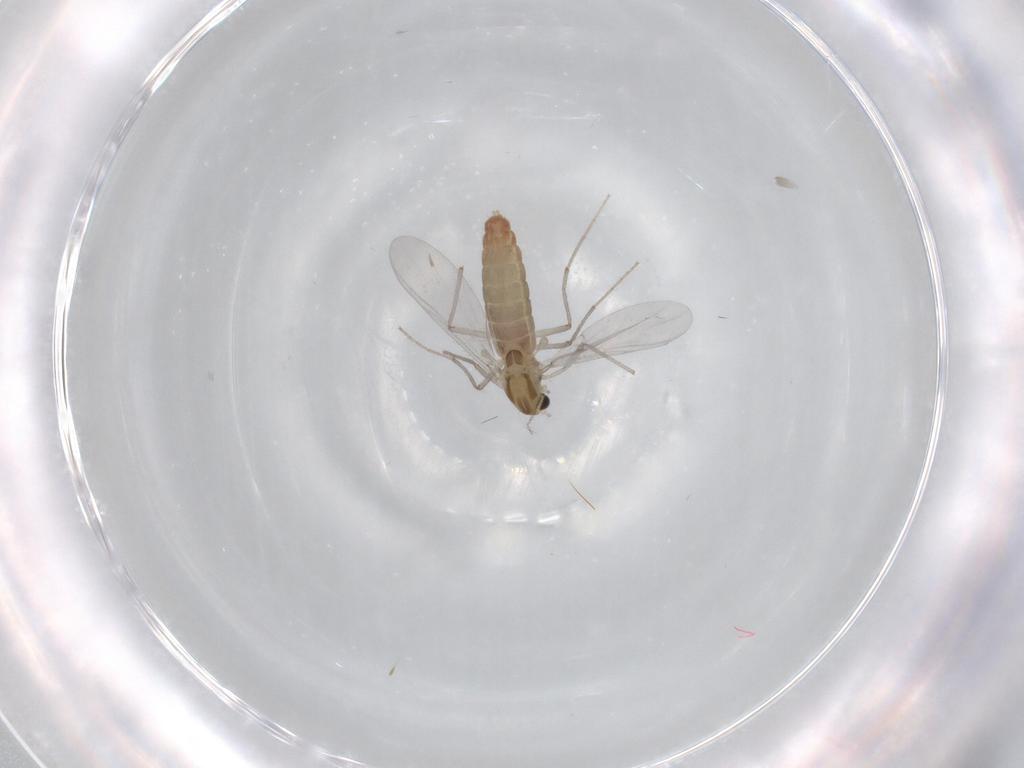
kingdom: Animalia
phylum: Arthropoda
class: Insecta
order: Diptera
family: Chironomidae
